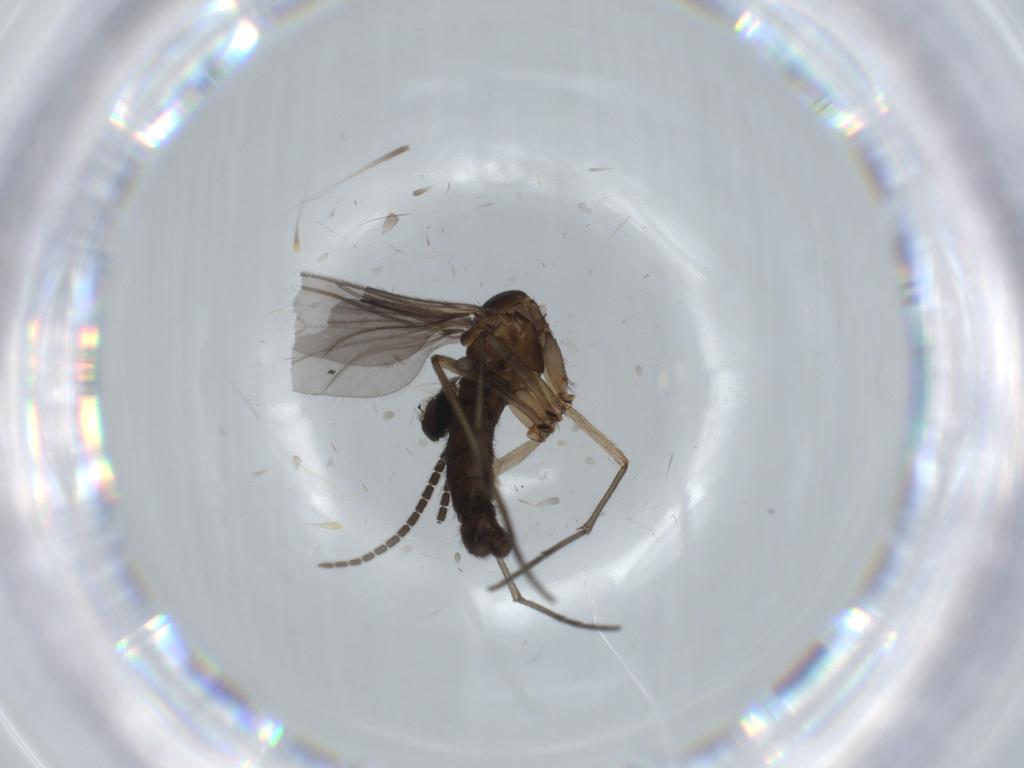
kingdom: Animalia
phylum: Arthropoda
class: Insecta
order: Diptera
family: Sciaridae
